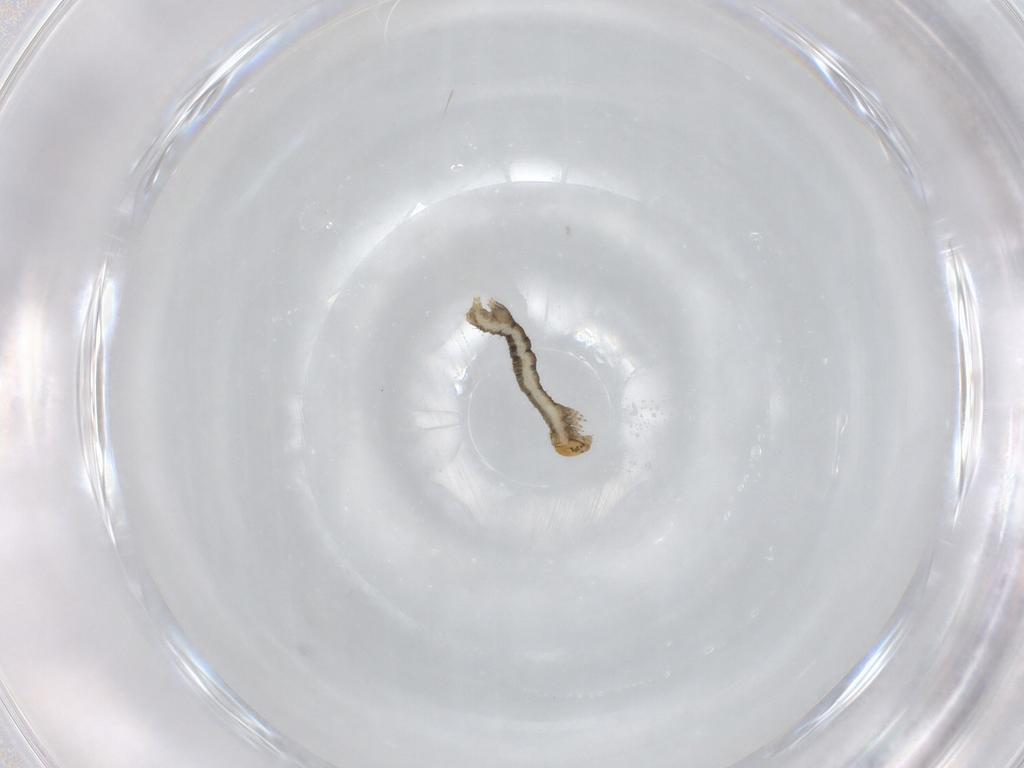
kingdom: Animalia
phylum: Arthropoda
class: Insecta
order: Lepidoptera
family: Geometridae
